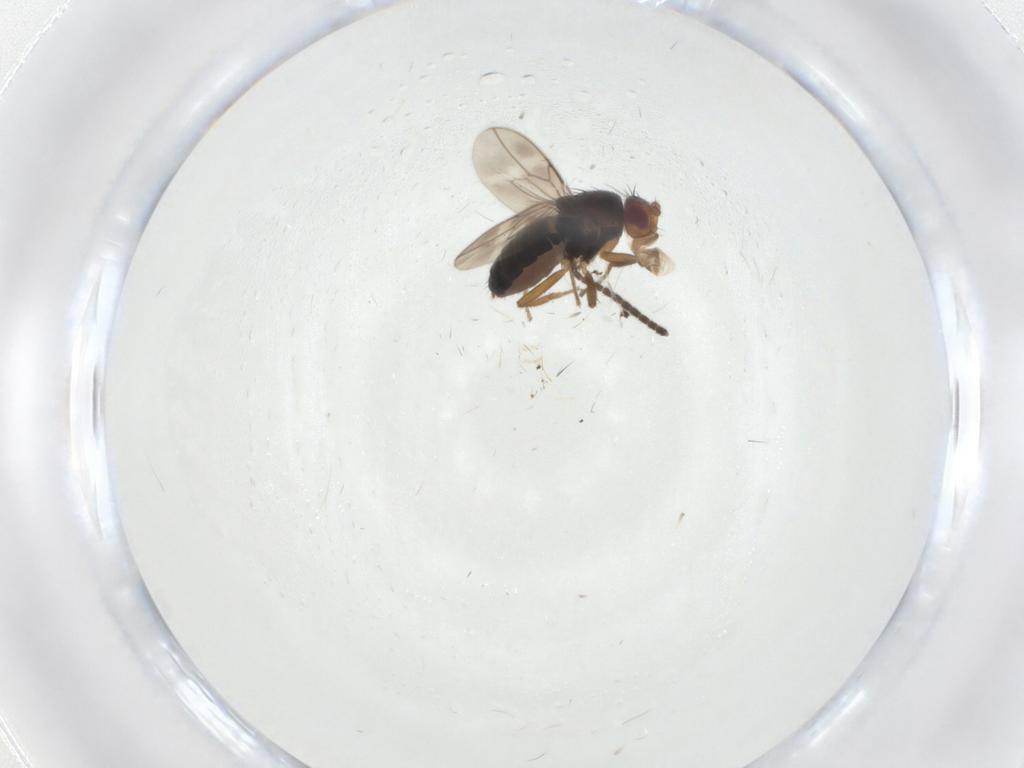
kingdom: Animalia
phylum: Arthropoda
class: Insecta
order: Diptera
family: Sphaeroceridae
